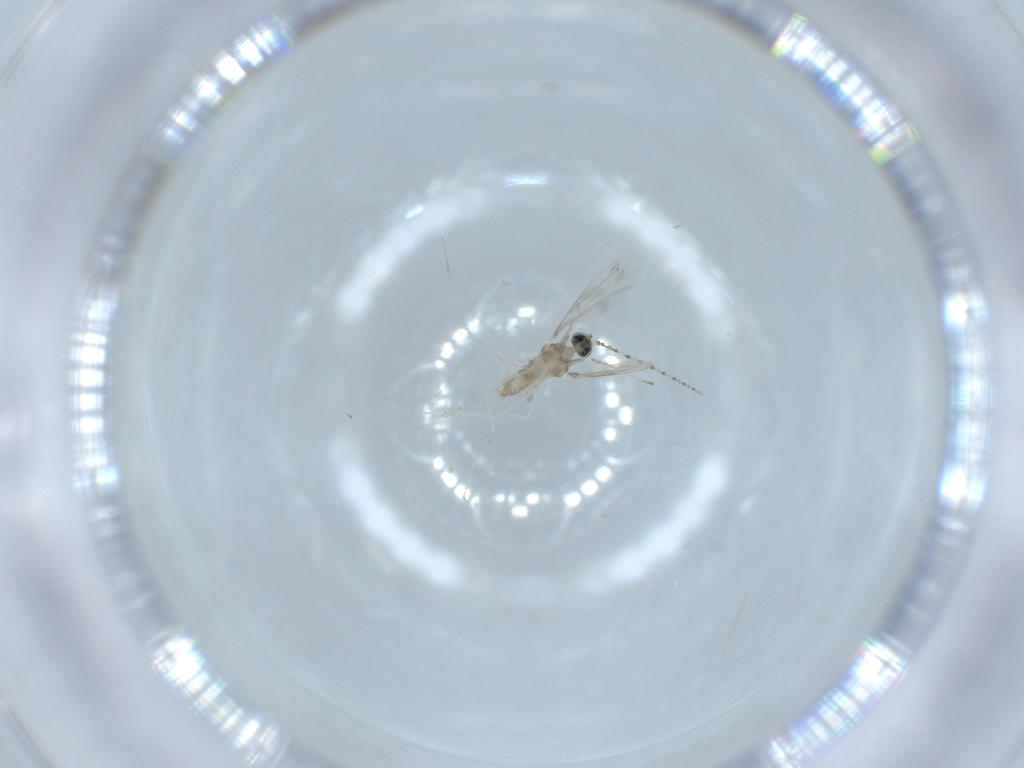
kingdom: Animalia
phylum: Arthropoda
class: Insecta
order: Diptera
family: Cecidomyiidae
